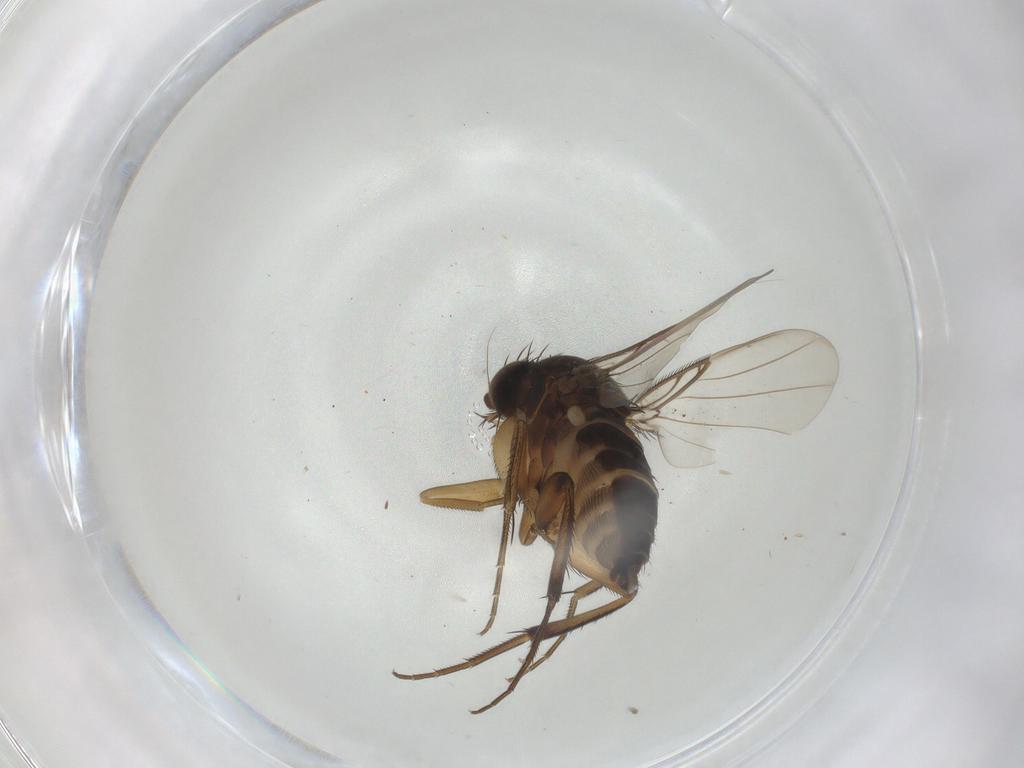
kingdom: Animalia
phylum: Arthropoda
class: Insecta
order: Diptera
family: Phoridae
